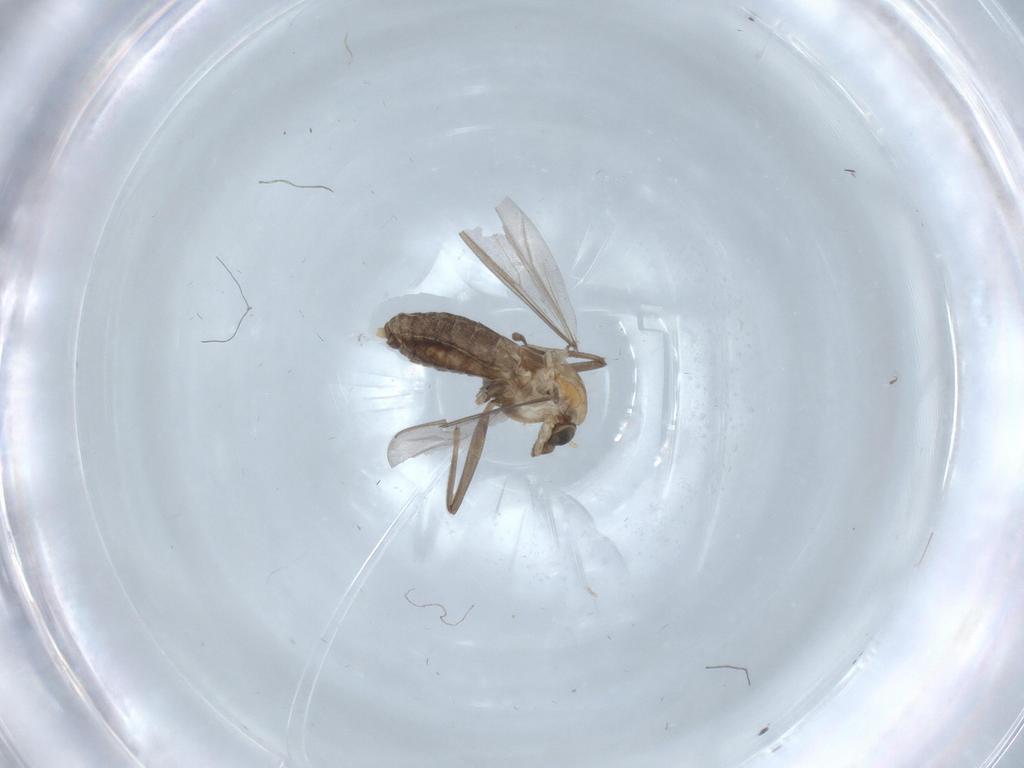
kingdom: Animalia
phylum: Arthropoda
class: Insecta
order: Diptera
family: Chironomidae
